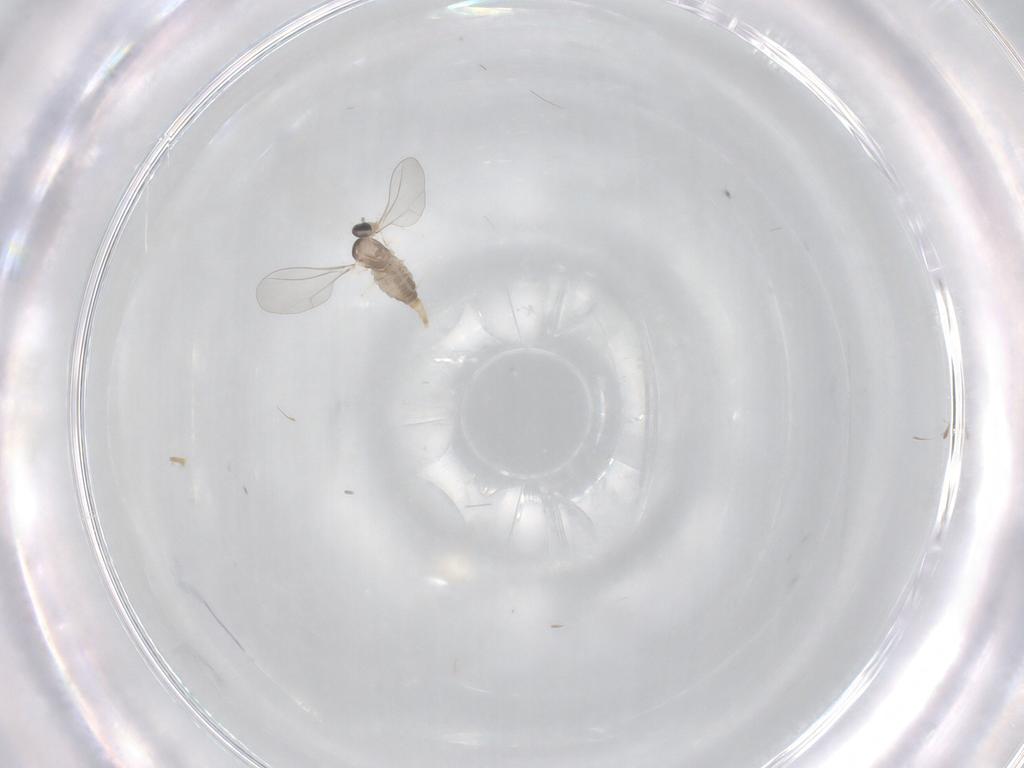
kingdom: Animalia
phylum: Arthropoda
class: Insecta
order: Diptera
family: Cecidomyiidae
